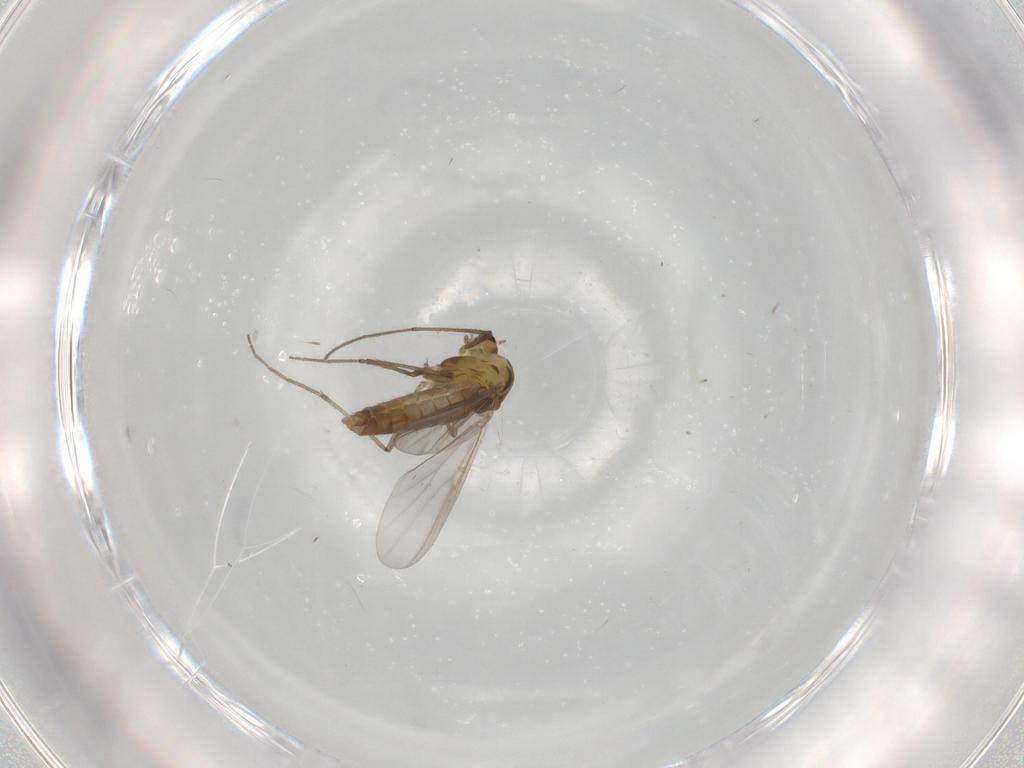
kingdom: Animalia
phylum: Arthropoda
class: Insecta
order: Diptera
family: Chironomidae
